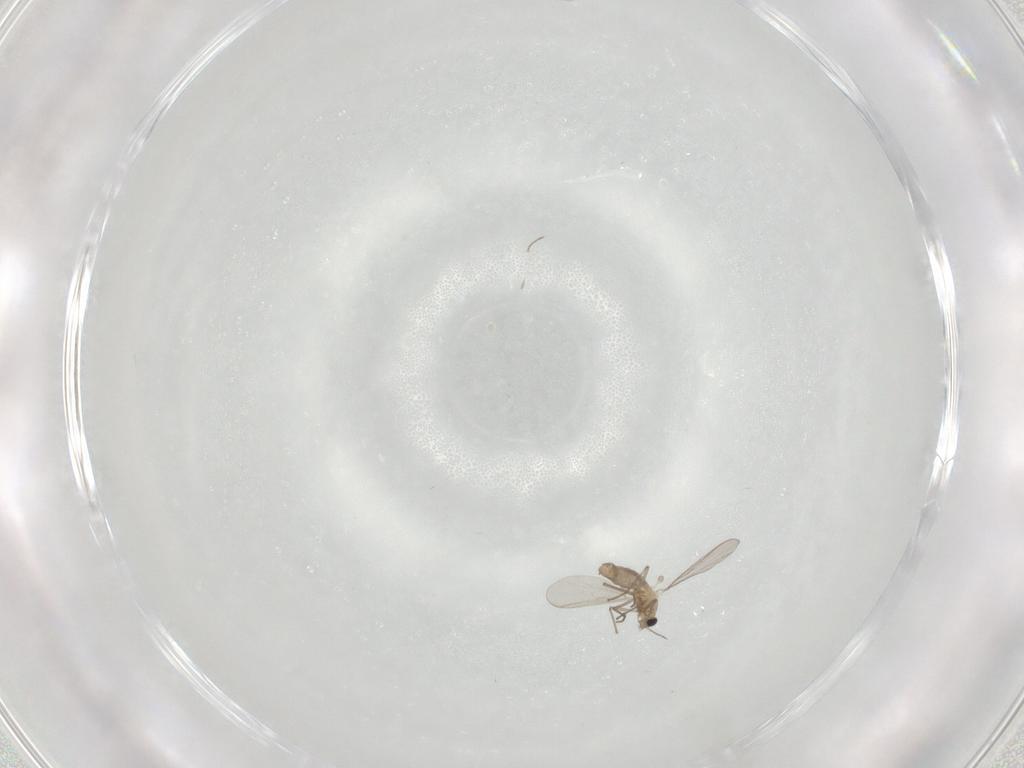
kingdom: Animalia
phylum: Arthropoda
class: Insecta
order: Diptera
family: Chironomidae
